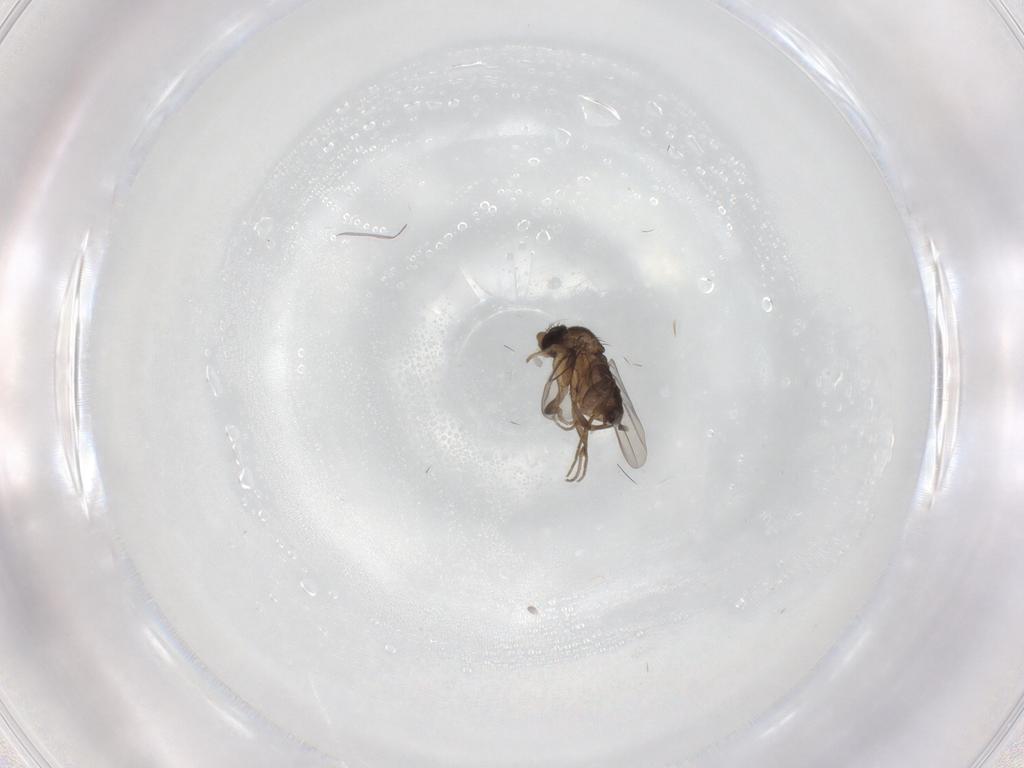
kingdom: Animalia
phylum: Arthropoda
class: Insecta
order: Diptera
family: Phoridae
